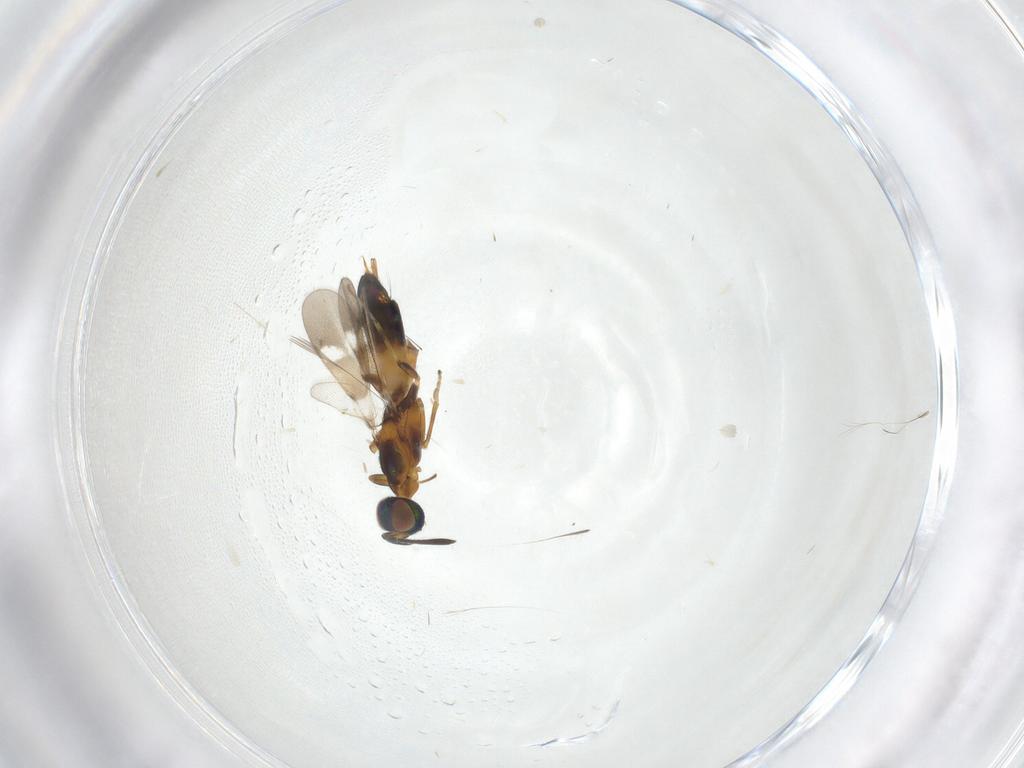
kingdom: Animalia
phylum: Arthropoda
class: Insecta
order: Hymenoptera
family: Eupelmidae
